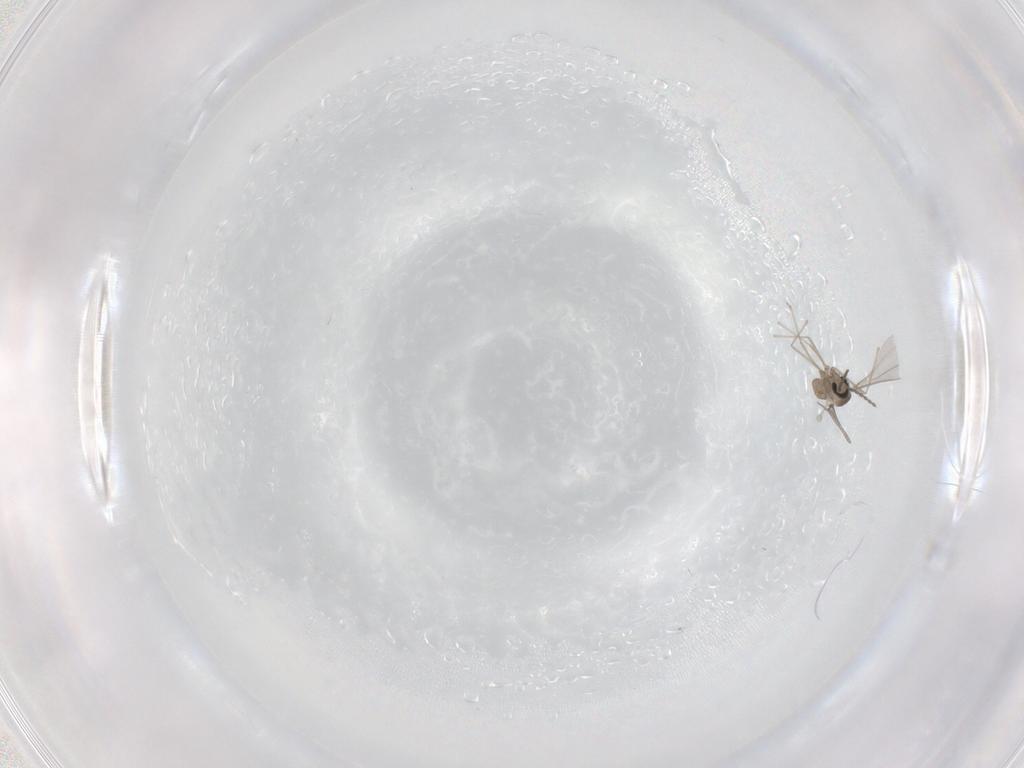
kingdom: Animalia
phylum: Arthropoda
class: Insecta
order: Diptera
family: Cecidomyiidae
